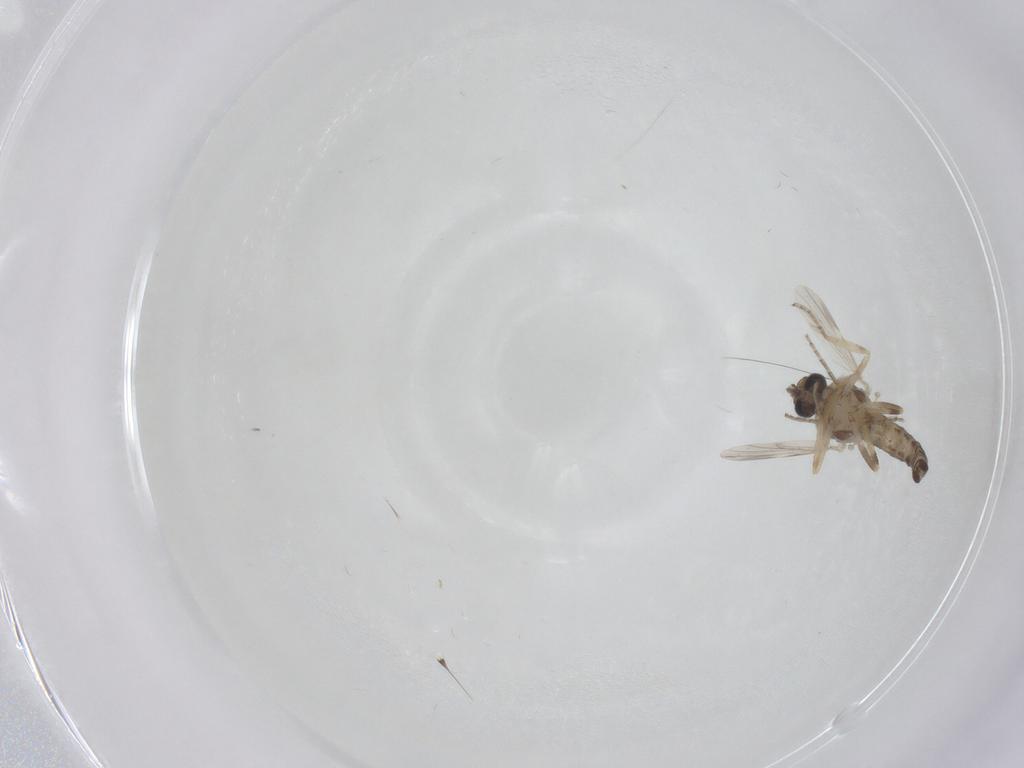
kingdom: Animalia
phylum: Arthropoda
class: Insecta
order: Diptera
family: Ceratopogonidae
